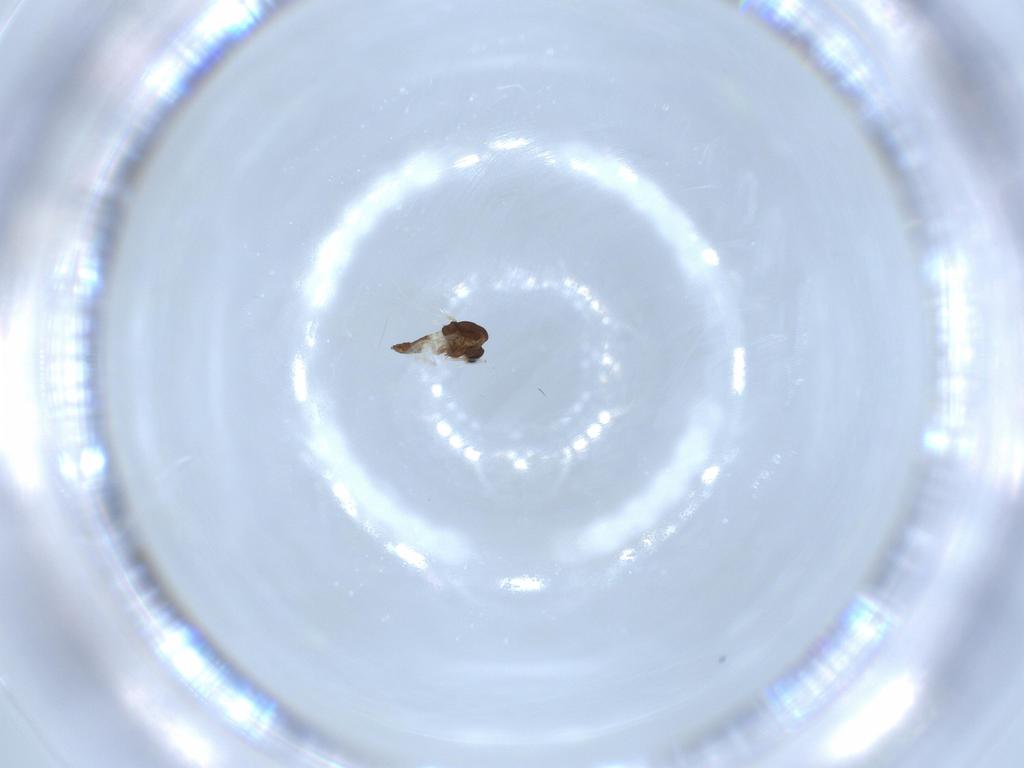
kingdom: Animalia
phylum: Arthropoda
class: Insecta
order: Diptera
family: Chironomidae
